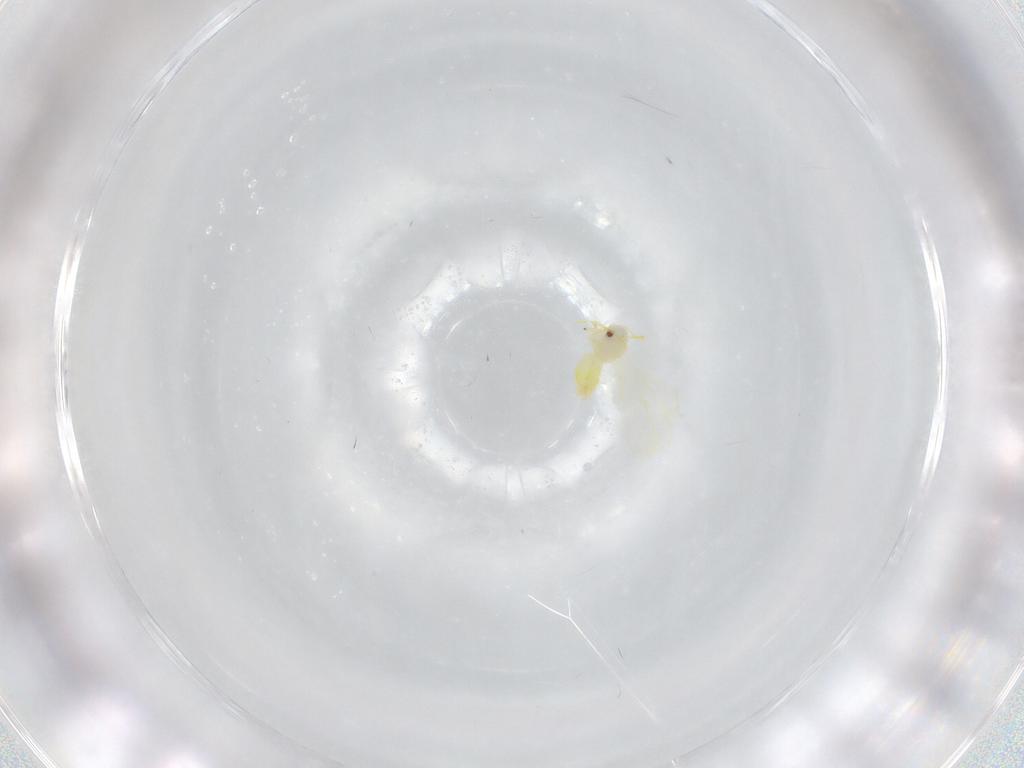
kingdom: Animalia
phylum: Arthropoda
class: Insecta
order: Hemiptera
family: Aleyrodidae
